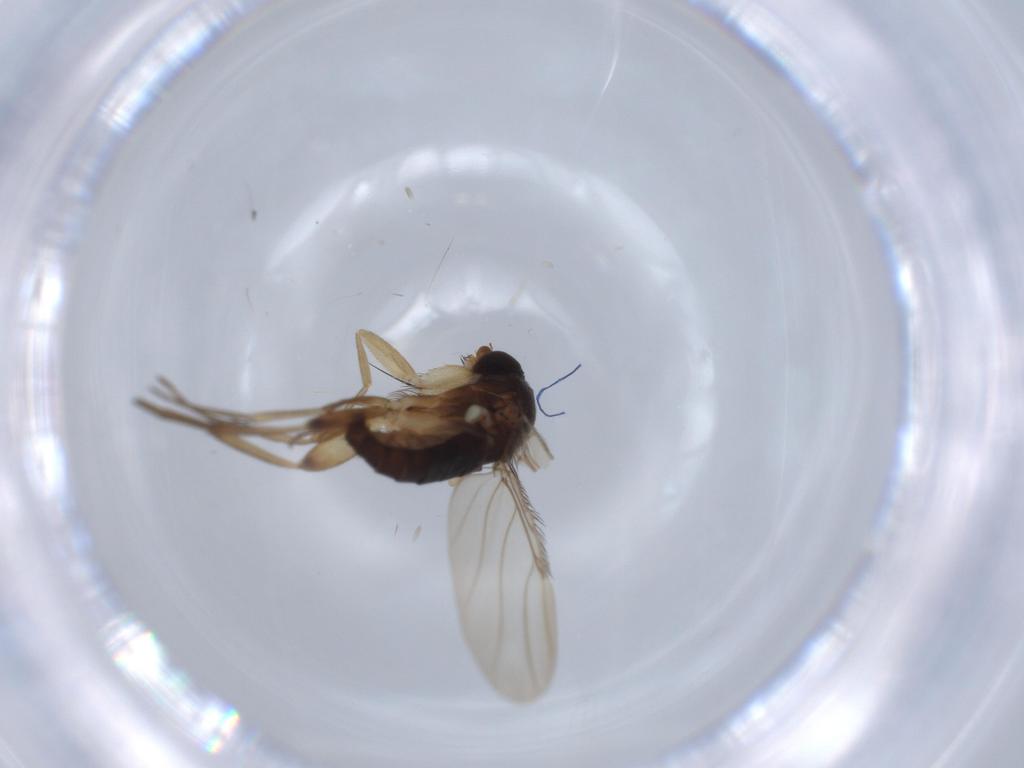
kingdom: Animalia
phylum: Arthropoda
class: Insecta
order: Diptera
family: Phoridae
